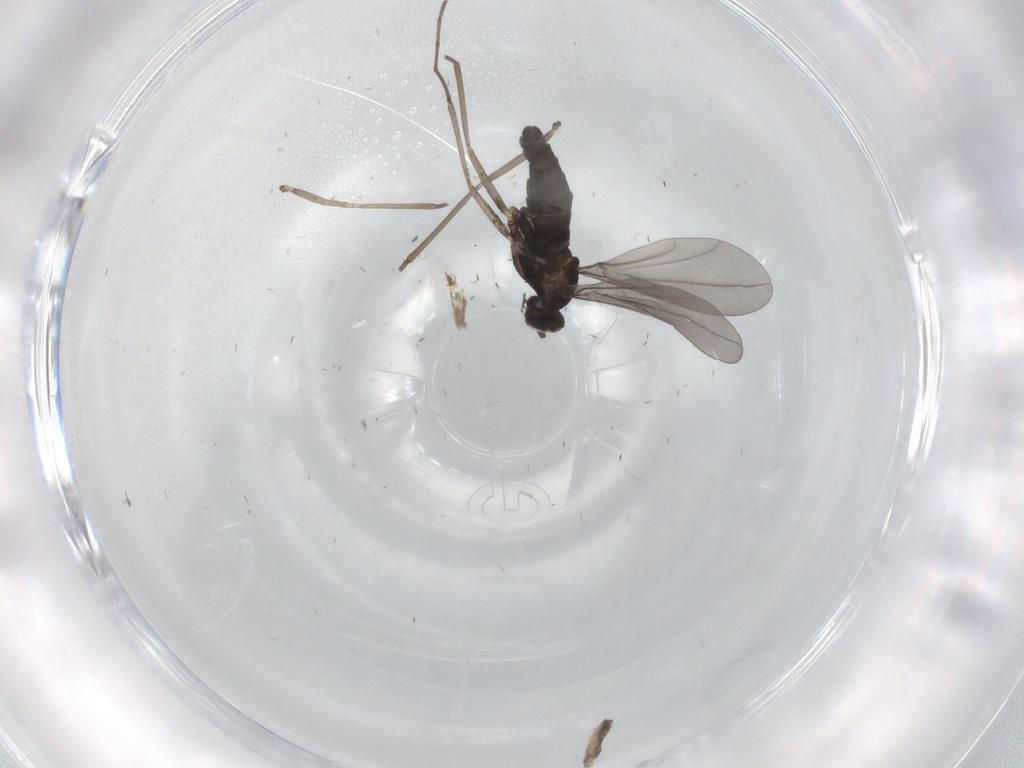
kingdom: Animalia
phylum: Arthropoda
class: Insecta
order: Diptera
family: Cecidomyiidae
